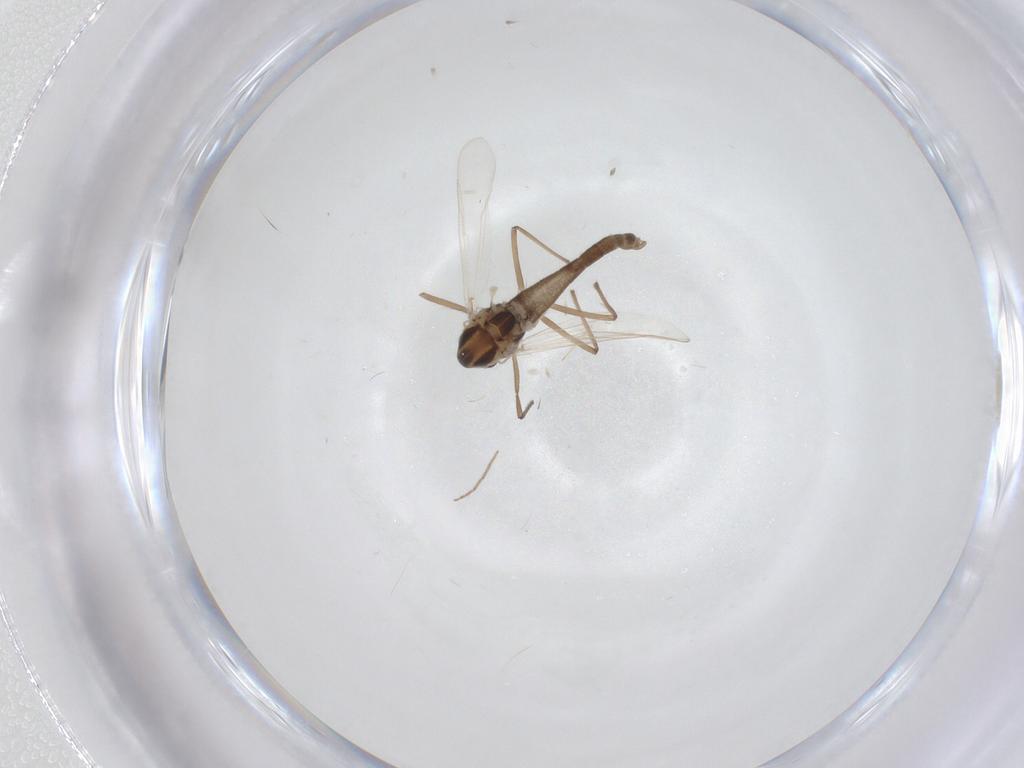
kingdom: Animalia
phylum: Arthropoda
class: Insecta
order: Diptera
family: Chironomidae
